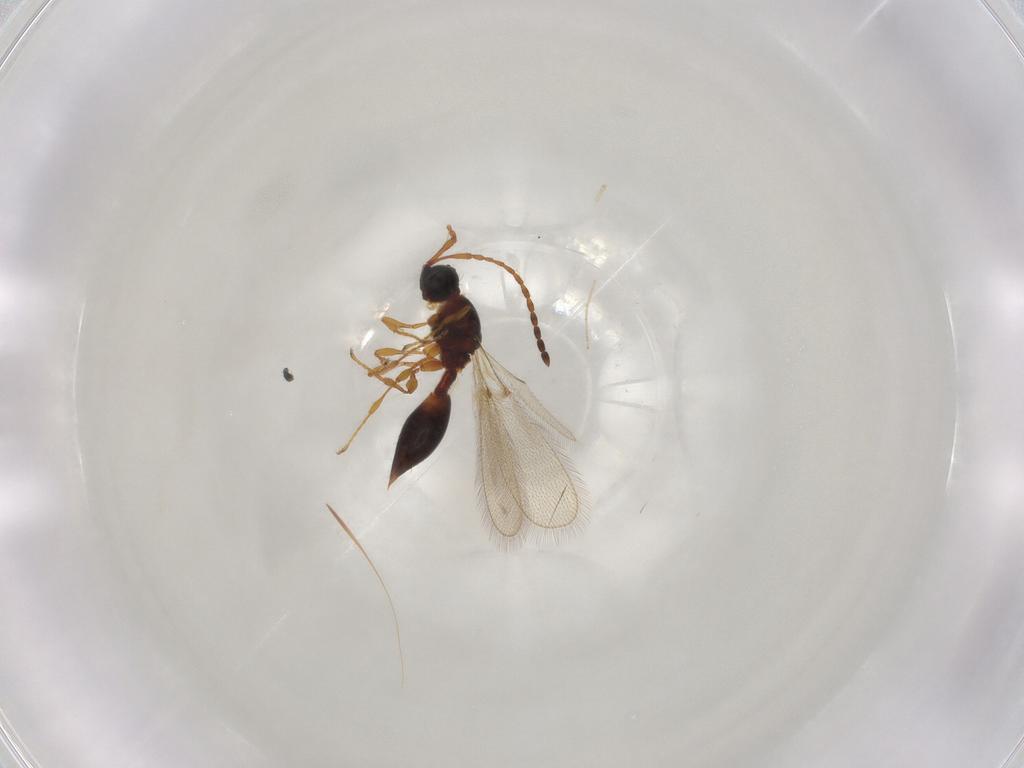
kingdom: Animalia
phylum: Arthropoda
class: Insecta
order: Hymenoptera
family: Diapriidae
